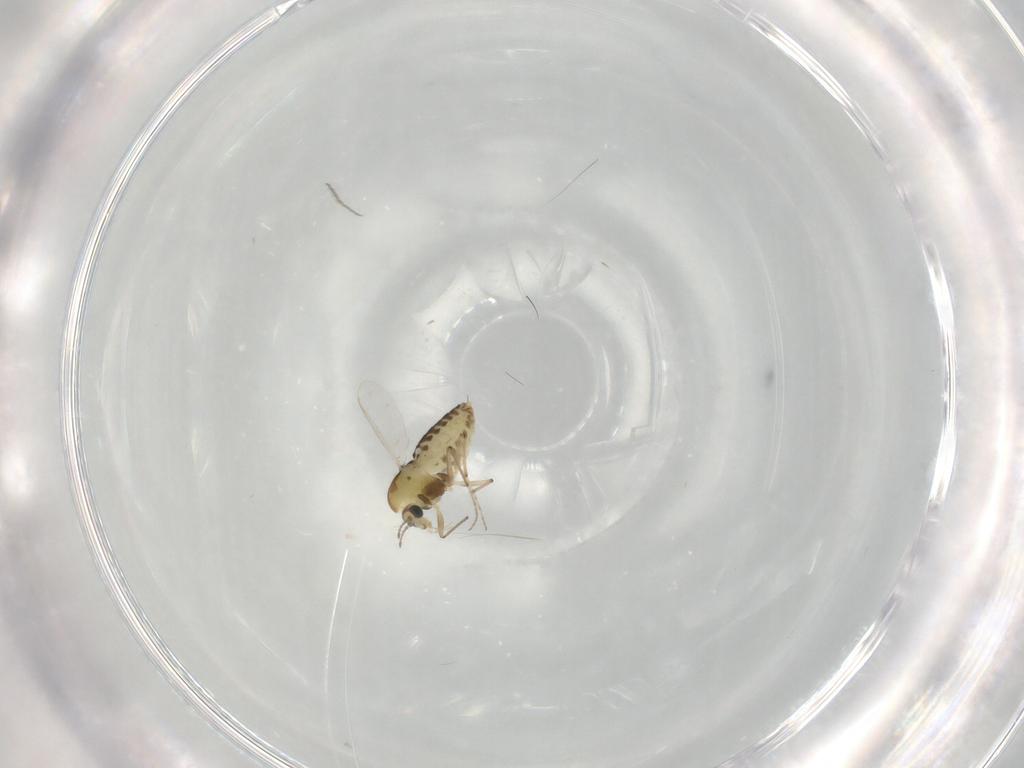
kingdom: Animalia
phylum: Arthropoda
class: Insecta
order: Diptera
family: Chironomidae
